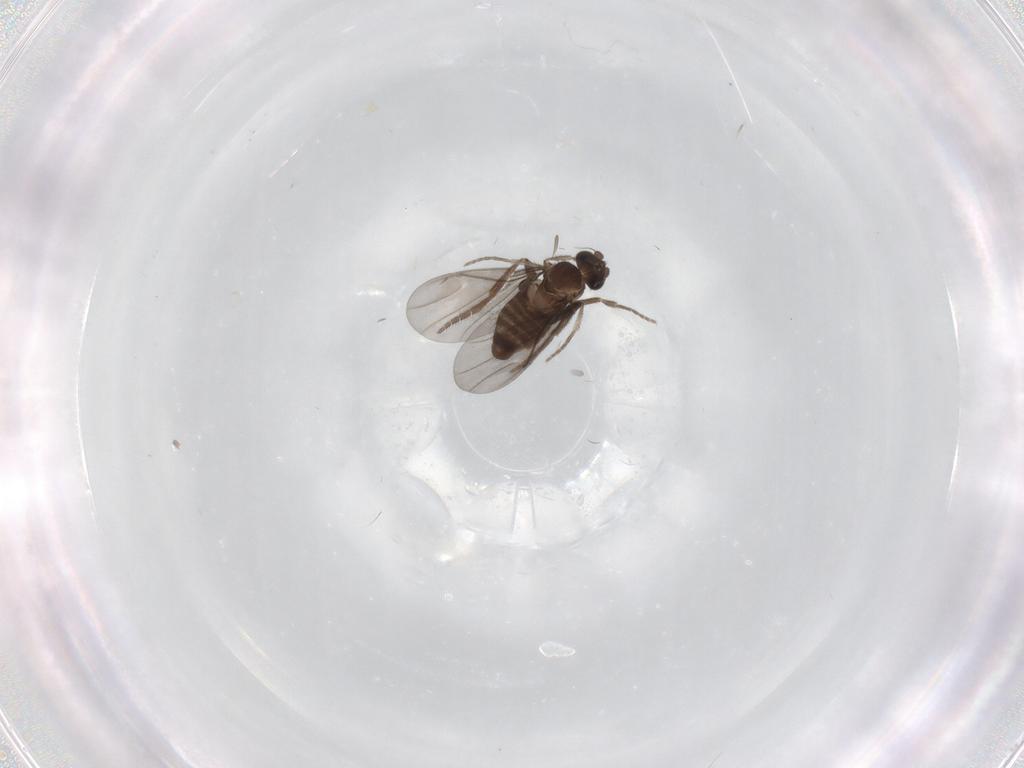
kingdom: Animalia
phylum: Arthropoda
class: Insecta
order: Diptera
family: Phoridae
